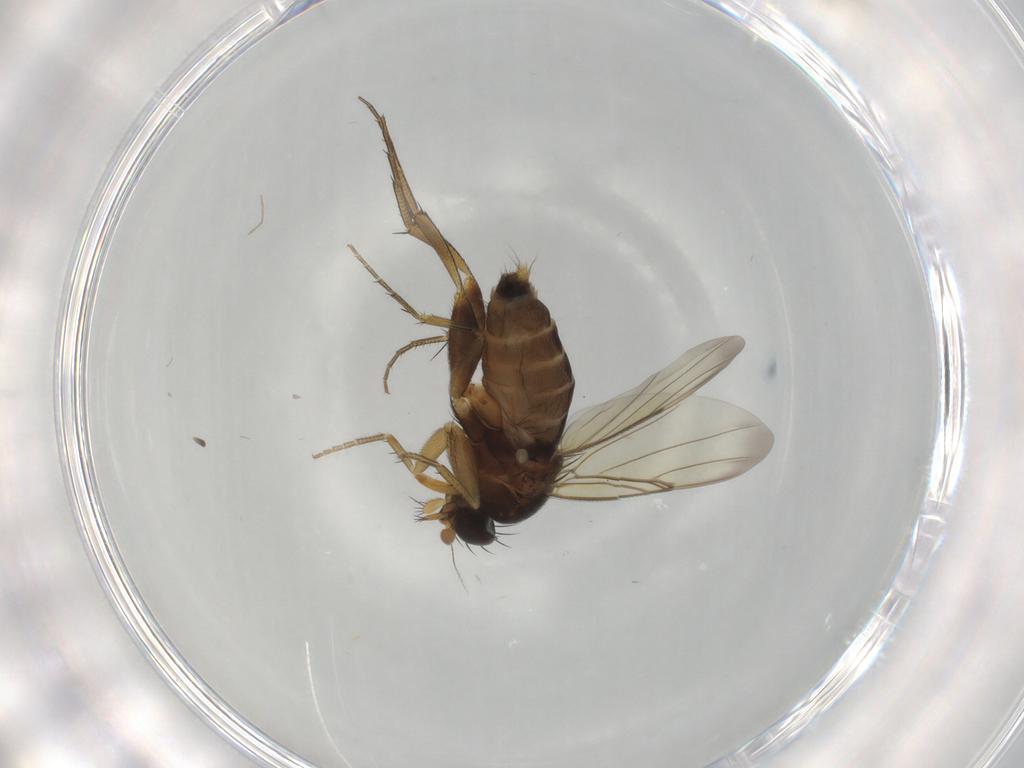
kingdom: Animalia
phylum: Arthropoda
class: Insecta
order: Diptera
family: Phoridae
